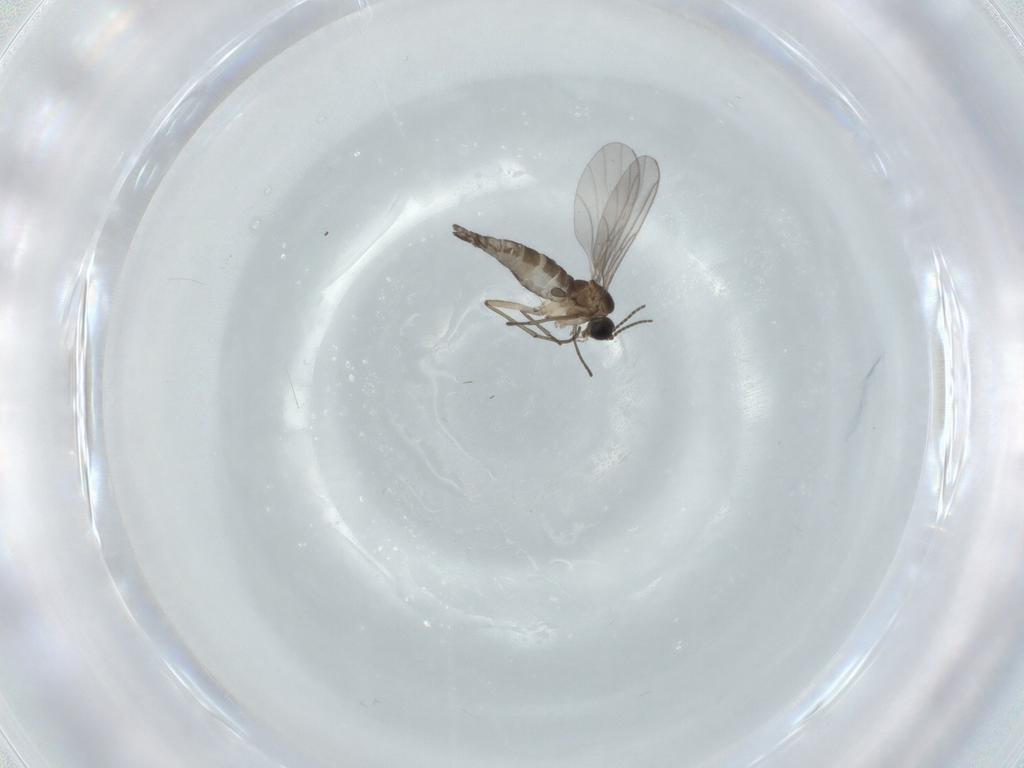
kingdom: Animalia
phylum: Arthropoda
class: Insecta
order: Diptera
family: Sciaridae
